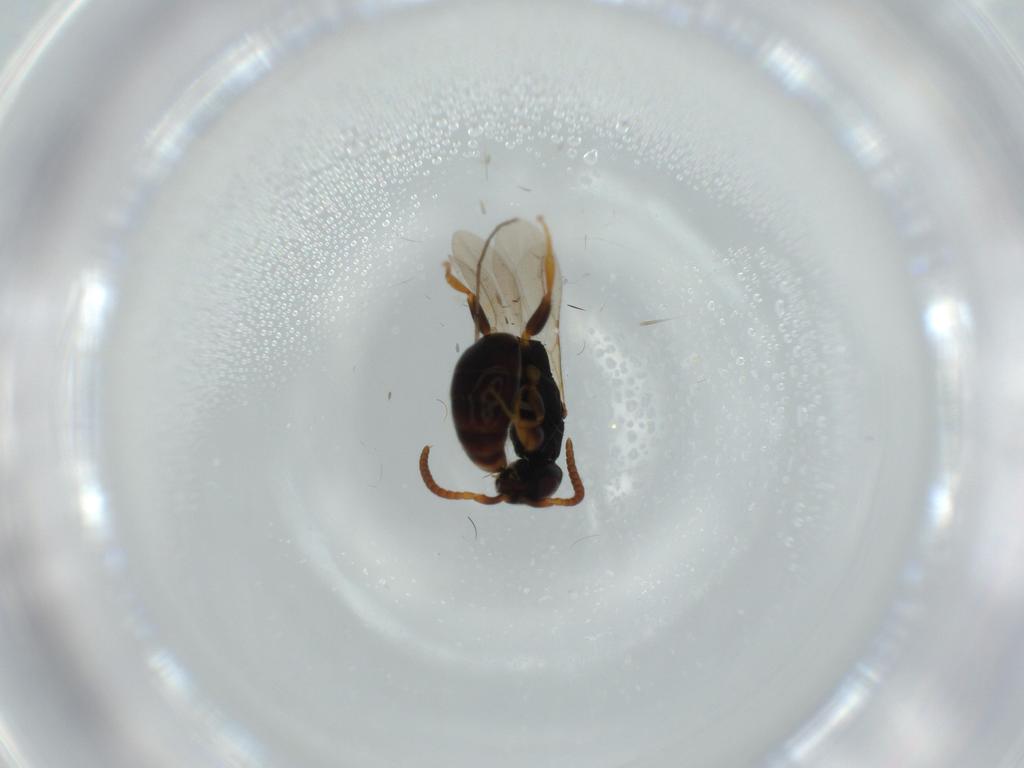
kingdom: Animalia
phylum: Arthropoda
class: Insecta
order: Hymenoptera
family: Bethylidae
